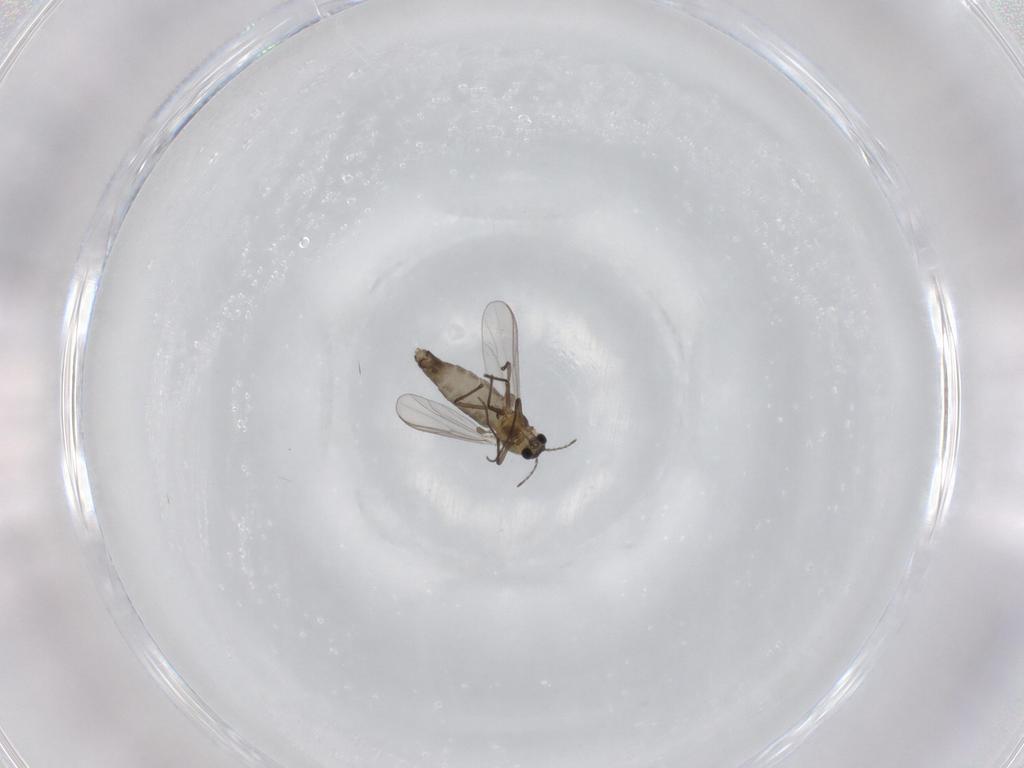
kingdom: Animalia
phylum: Arthropoda
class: Insecta
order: Diptera
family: Chironomidae
